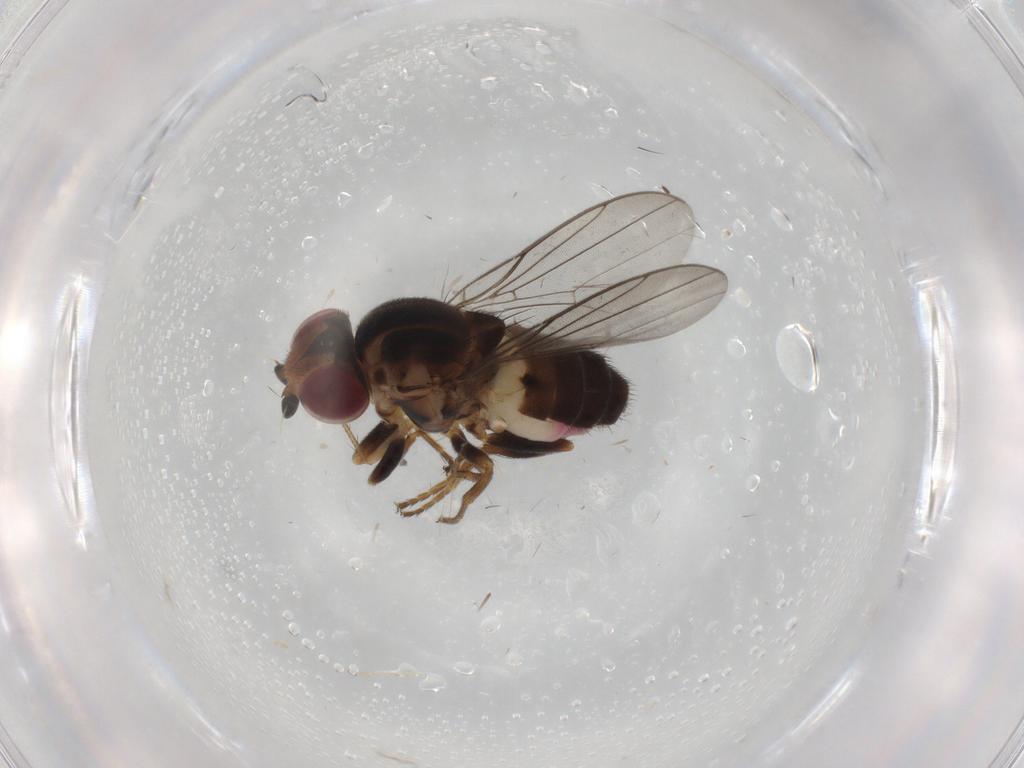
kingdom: Animalia
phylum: Arthropoda
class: Insecta
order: Diptera
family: Chloropidae
